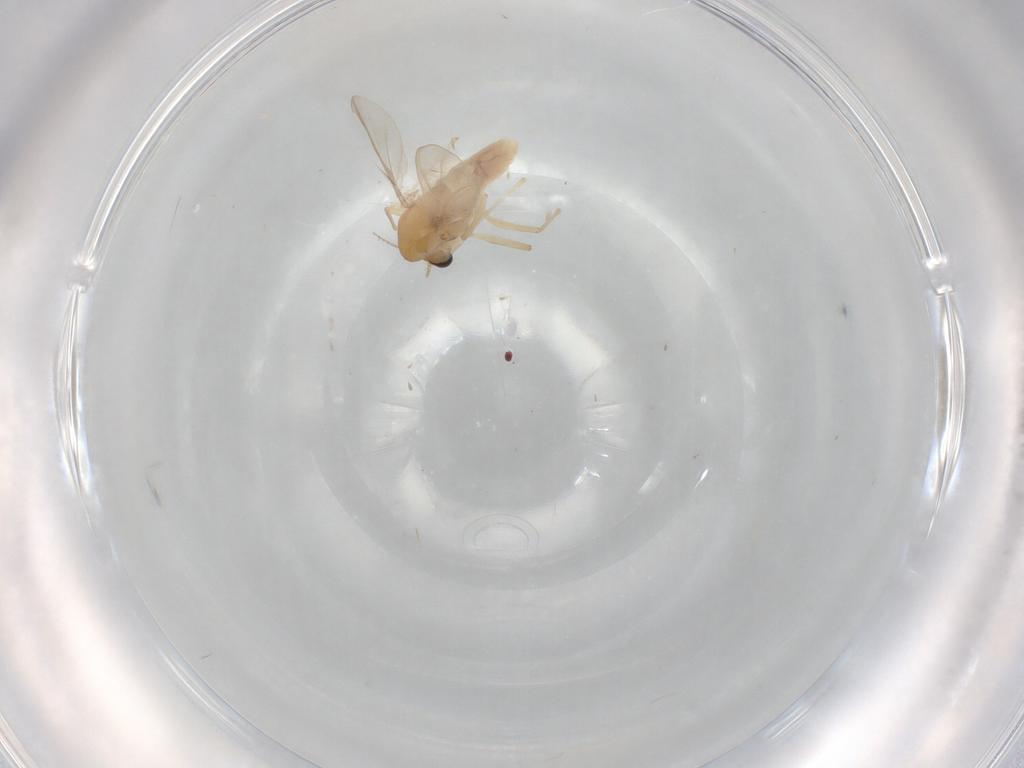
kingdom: Animalia
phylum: Arthropoda
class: Insecta
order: Diptera
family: Chironomidae
